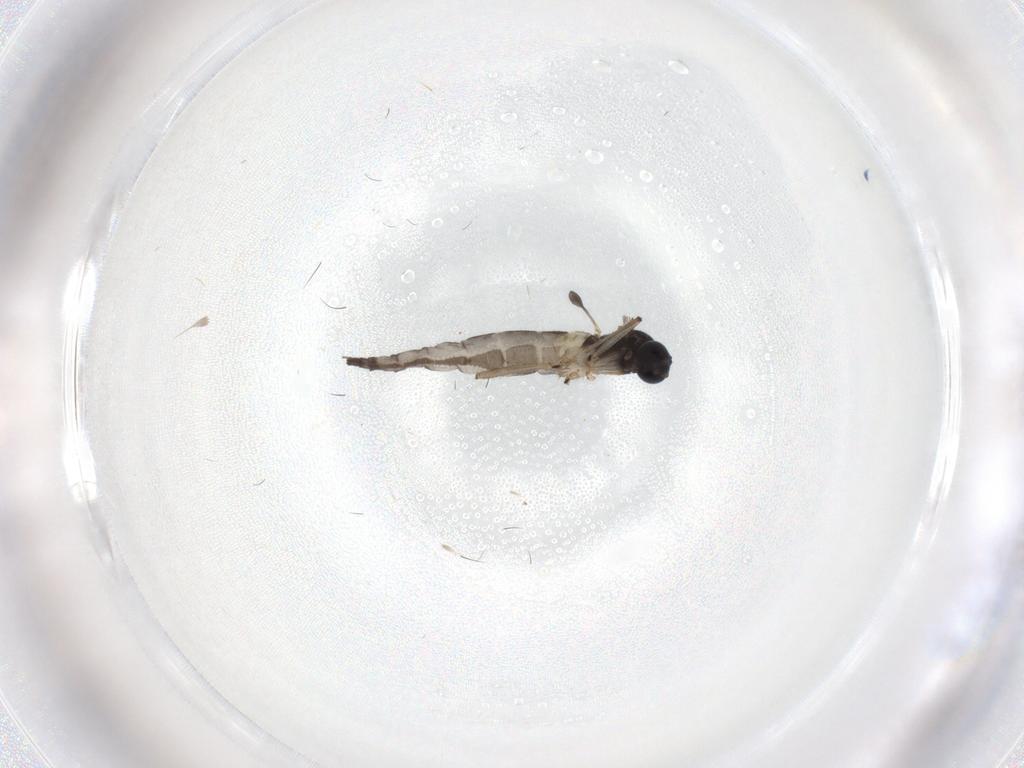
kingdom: Animalia
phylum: Arthropoda
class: Insecta
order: Diptera
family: Sciaridae
